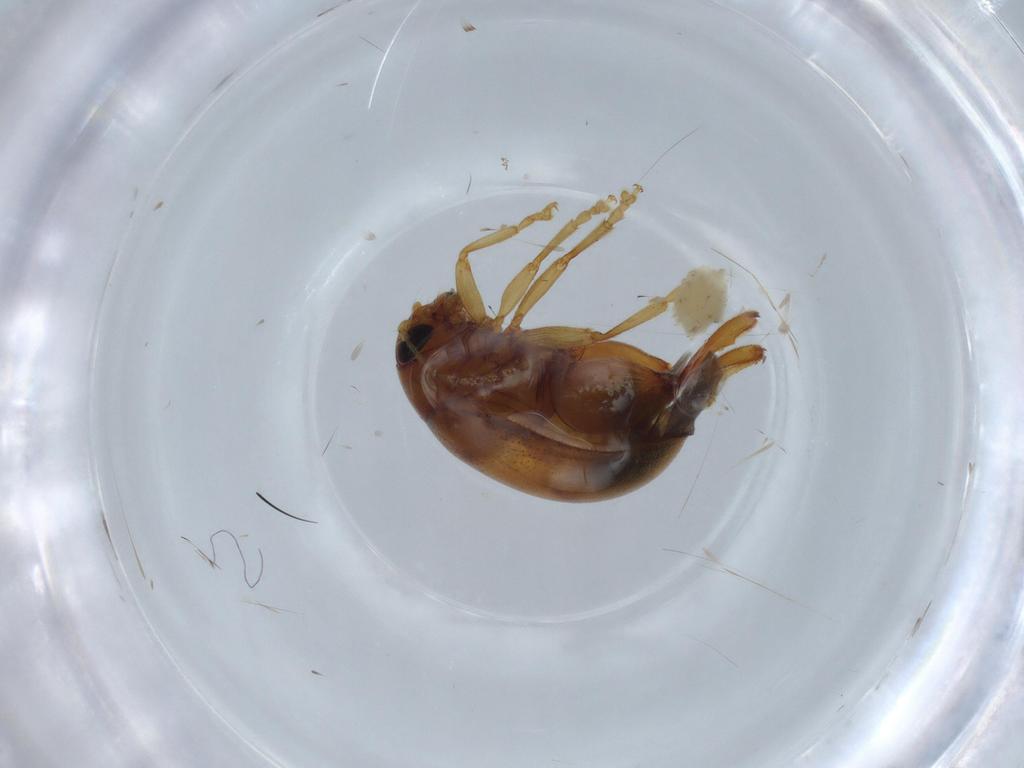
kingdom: Animalia
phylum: Arthropoda
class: Insecta
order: Coleoptera
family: Chrysomelidae
